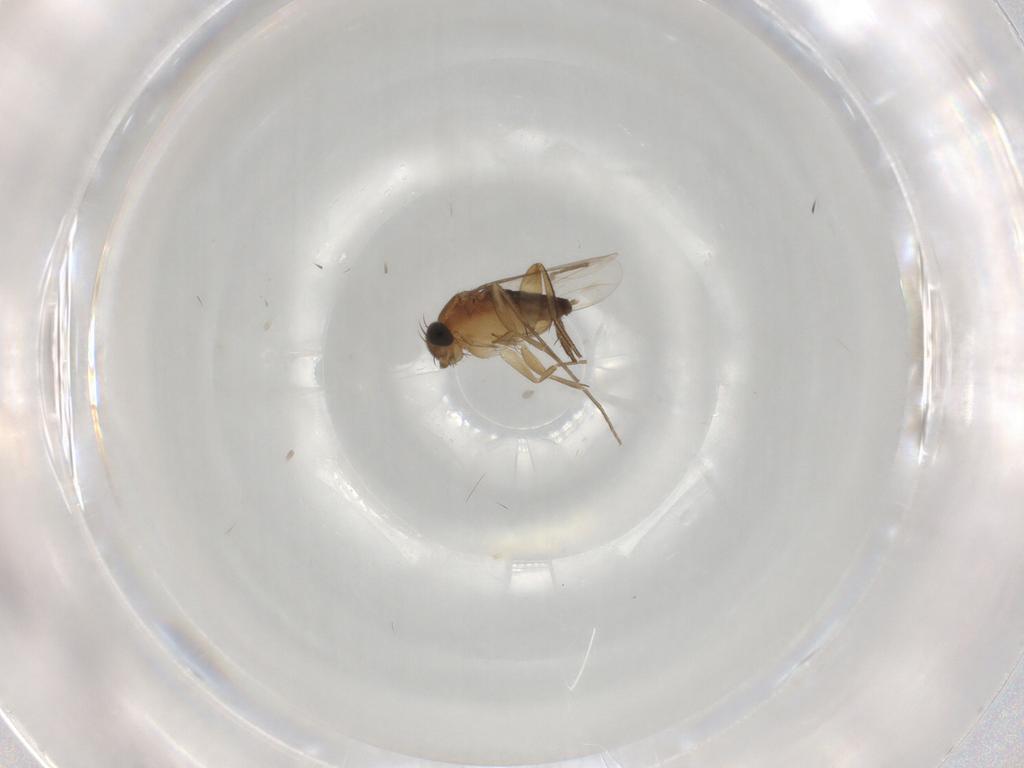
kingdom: Animalia
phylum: Arthropoda
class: Insecta
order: Diptera
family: Phoridae
